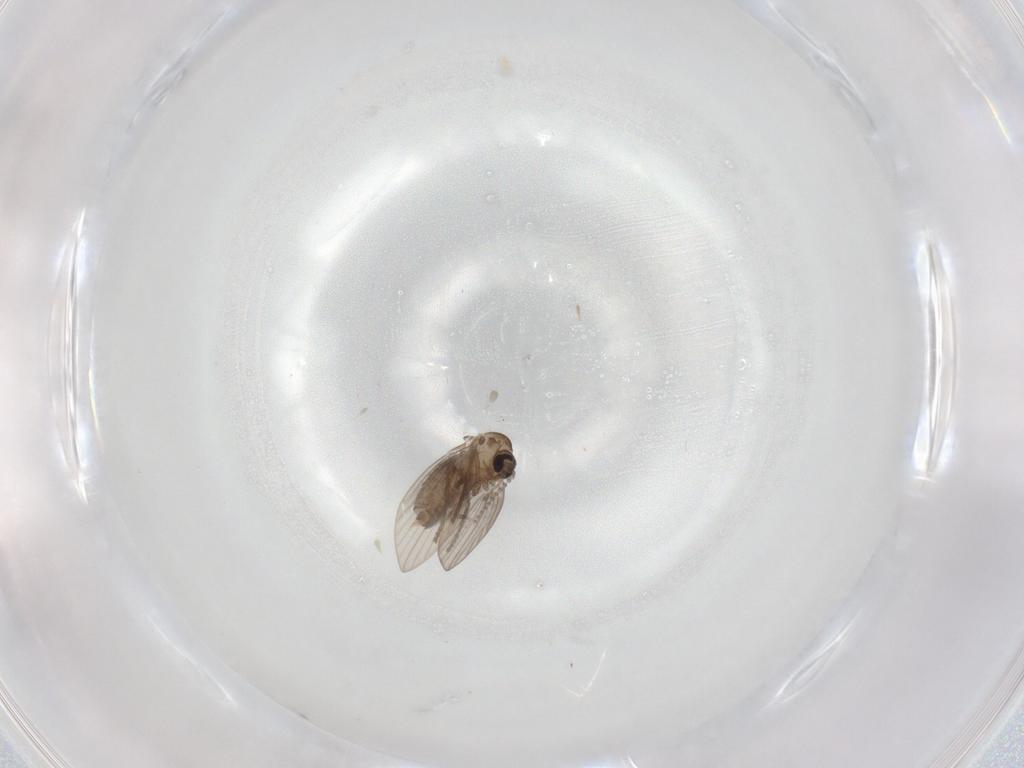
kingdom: Animalia
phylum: Arthropoda
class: Insecta
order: Diptera
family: Psychodidae
